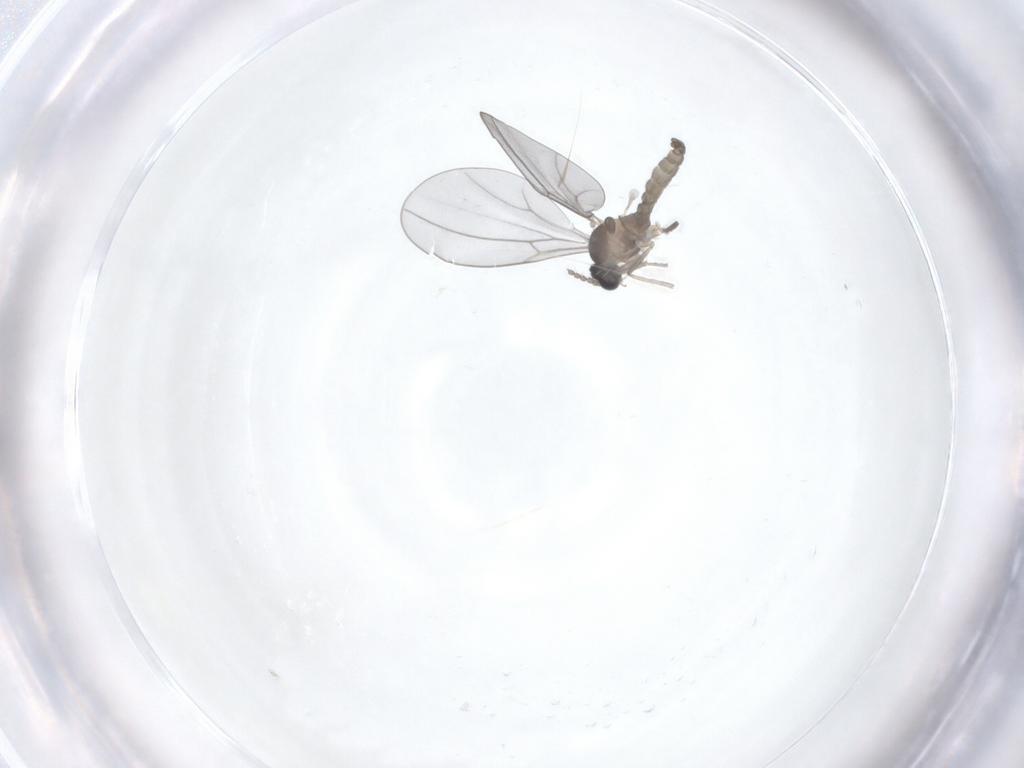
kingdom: Animalia
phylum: Arthropoda
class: Insecta
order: Diptera
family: Cecidomyiidae
